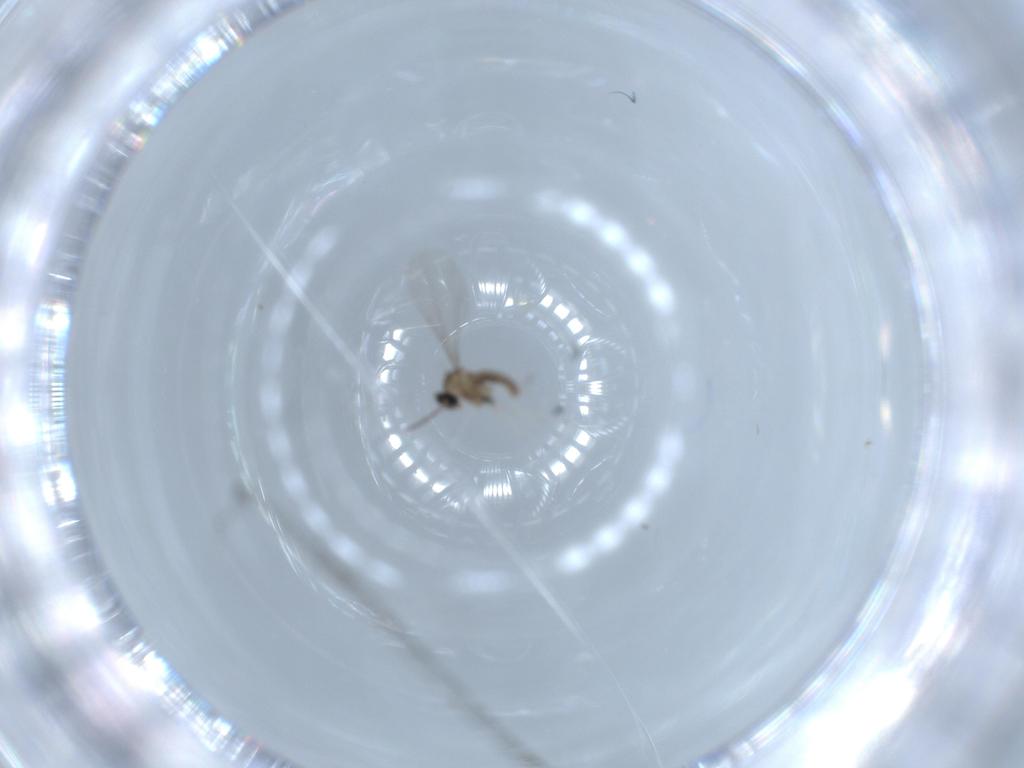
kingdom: Animalia
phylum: Arthropoda
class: Insecta
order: Diptera
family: Cecidomyiidae
